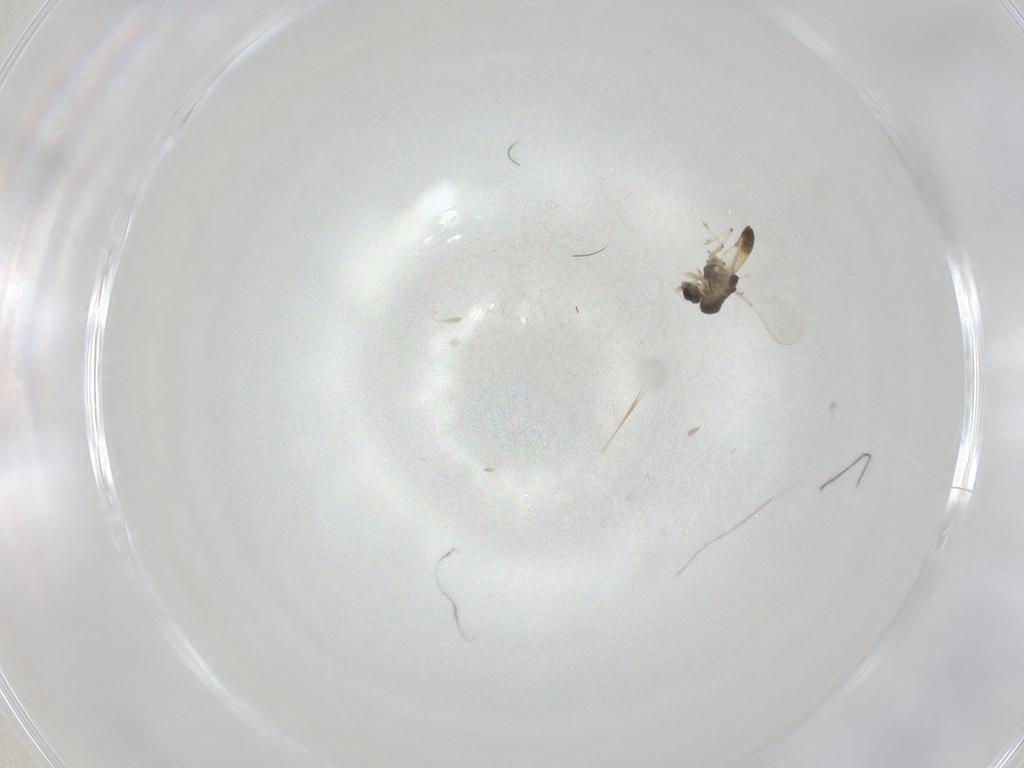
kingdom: Animalia
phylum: Arthropoda
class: Insecta
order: Diptera
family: Chironomidae
